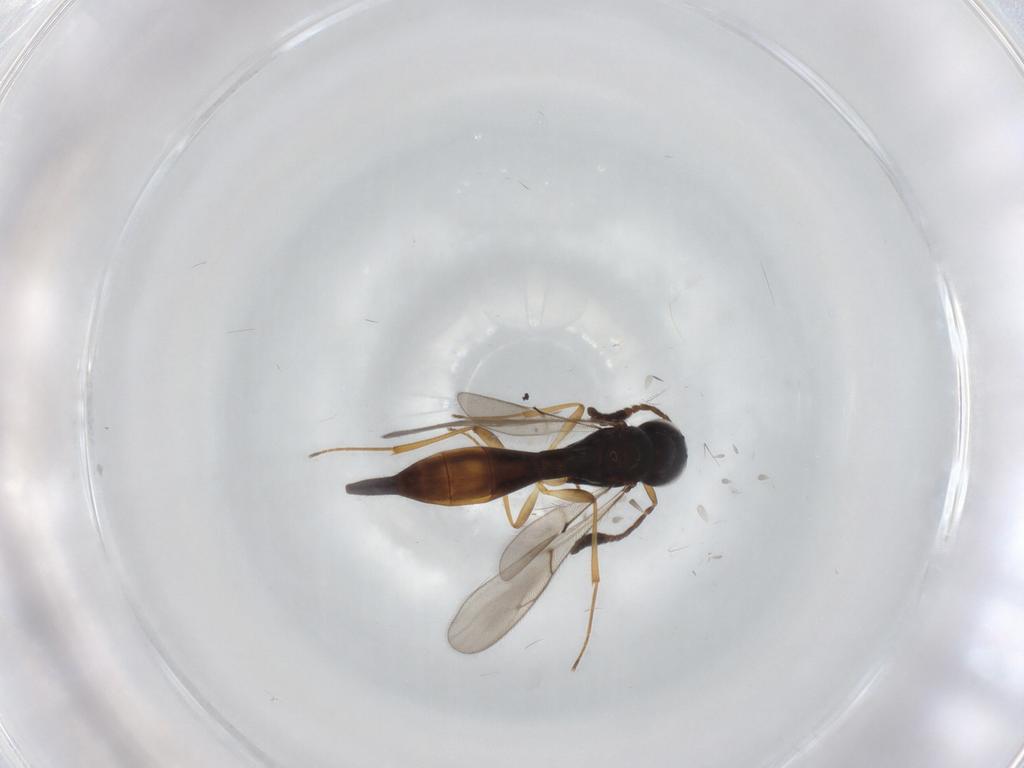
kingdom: Animalia
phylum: Arthropoda
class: Insecta
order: Hymenoptera
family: Scelionidae
